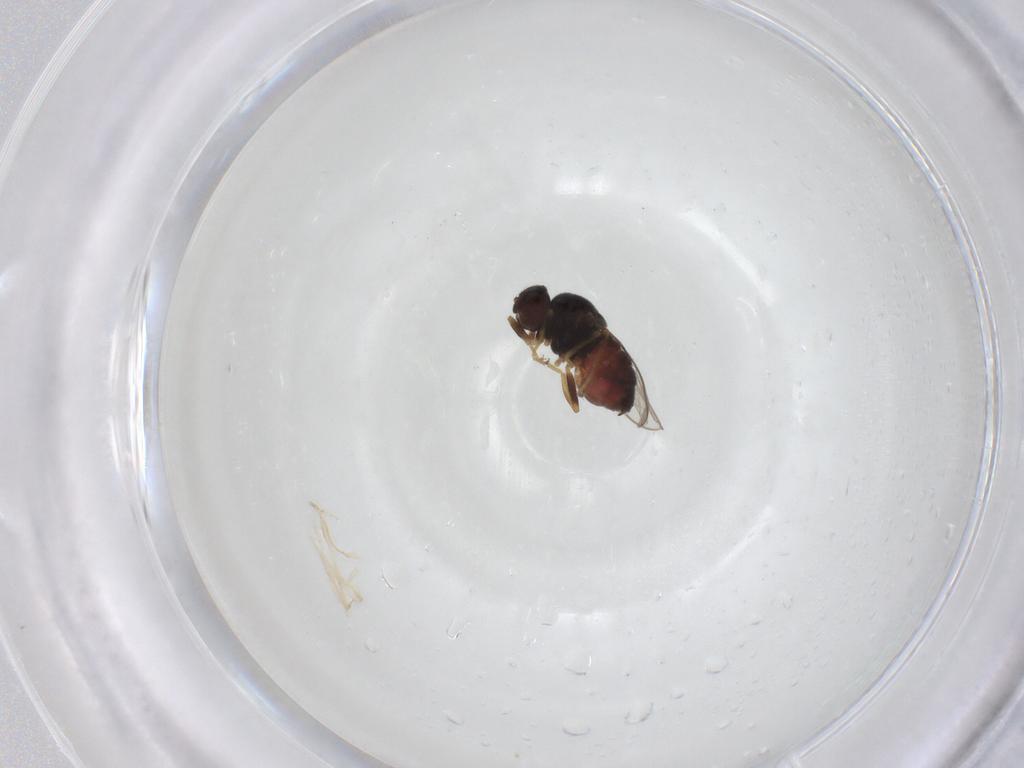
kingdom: Animalia
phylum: Arthropoda
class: Insecta
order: Diptera
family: Chloropidae
